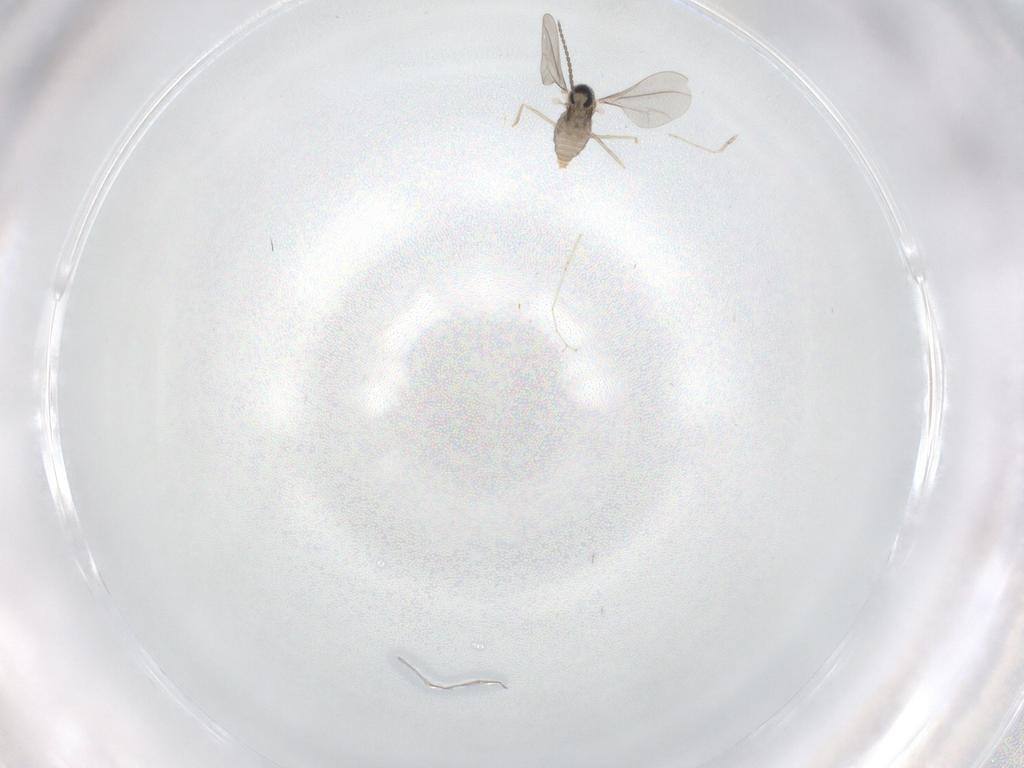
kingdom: Animalia
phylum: Arthropoda
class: Insecta
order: Diptera
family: Cecidomyiidae
